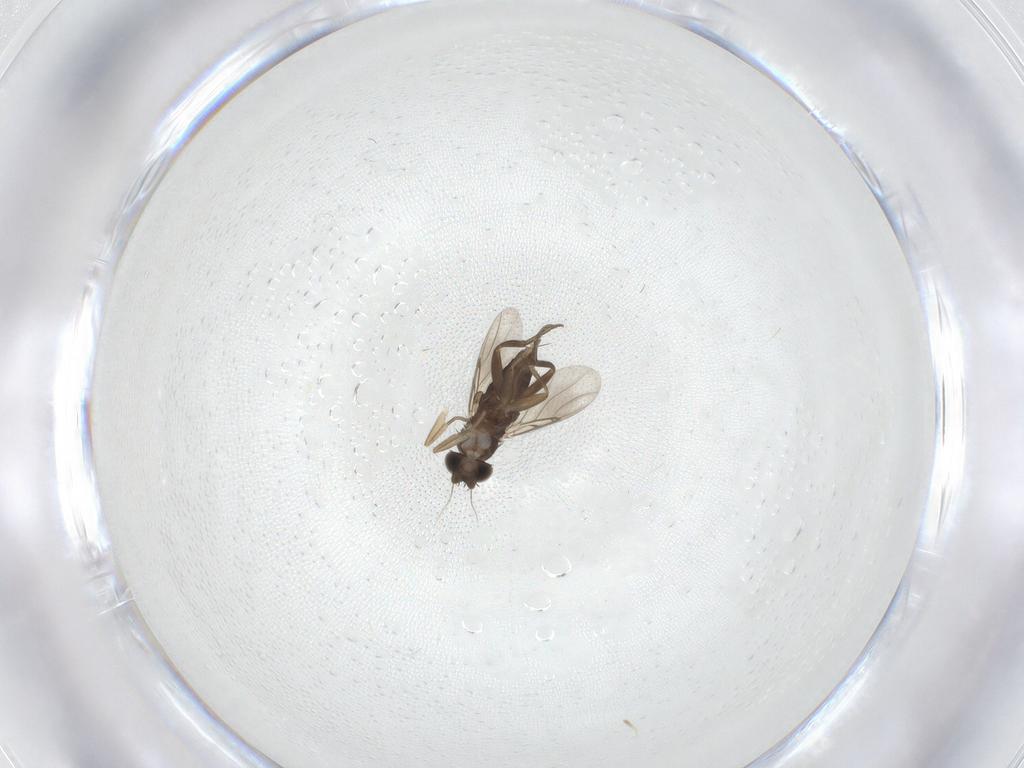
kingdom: Animalia
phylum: Arthropoda
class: Insecta
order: Diptera
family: Phoridae
